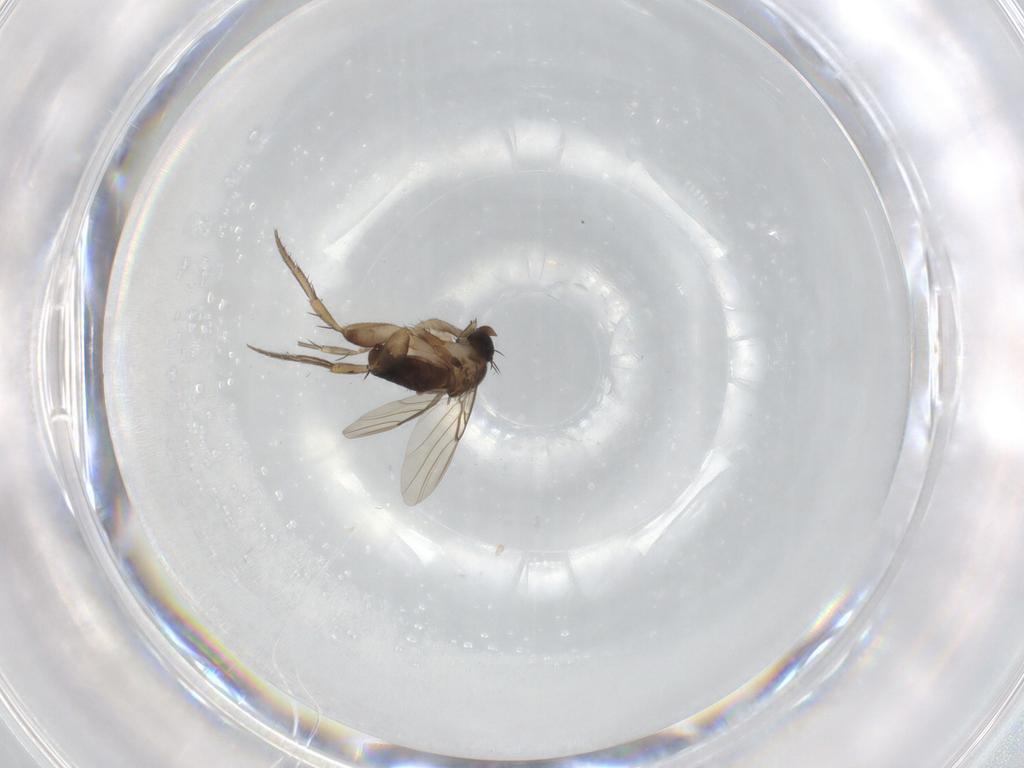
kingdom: Animalia
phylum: Arthropoda
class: Insecta
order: Diptera
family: Phoridae
